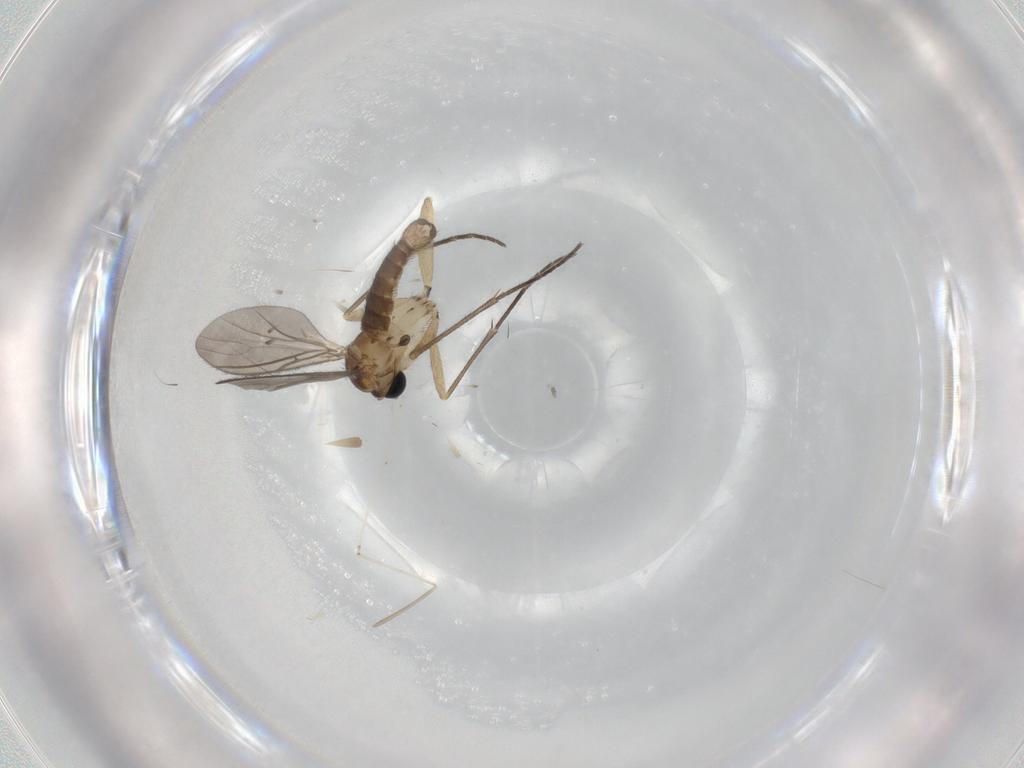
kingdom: Animalia
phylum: Arthropoda
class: Insecta
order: Diptera
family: Sciaridae
